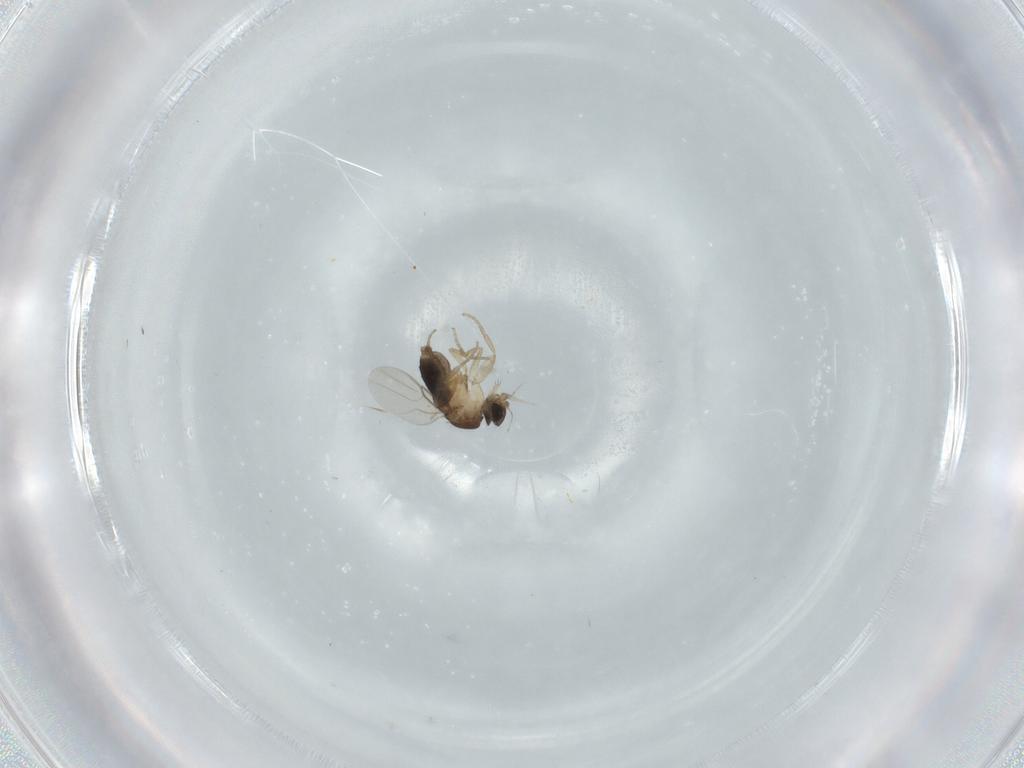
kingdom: Animalia
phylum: Arthropoda
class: Insecta
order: Diptera
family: Phoridae
